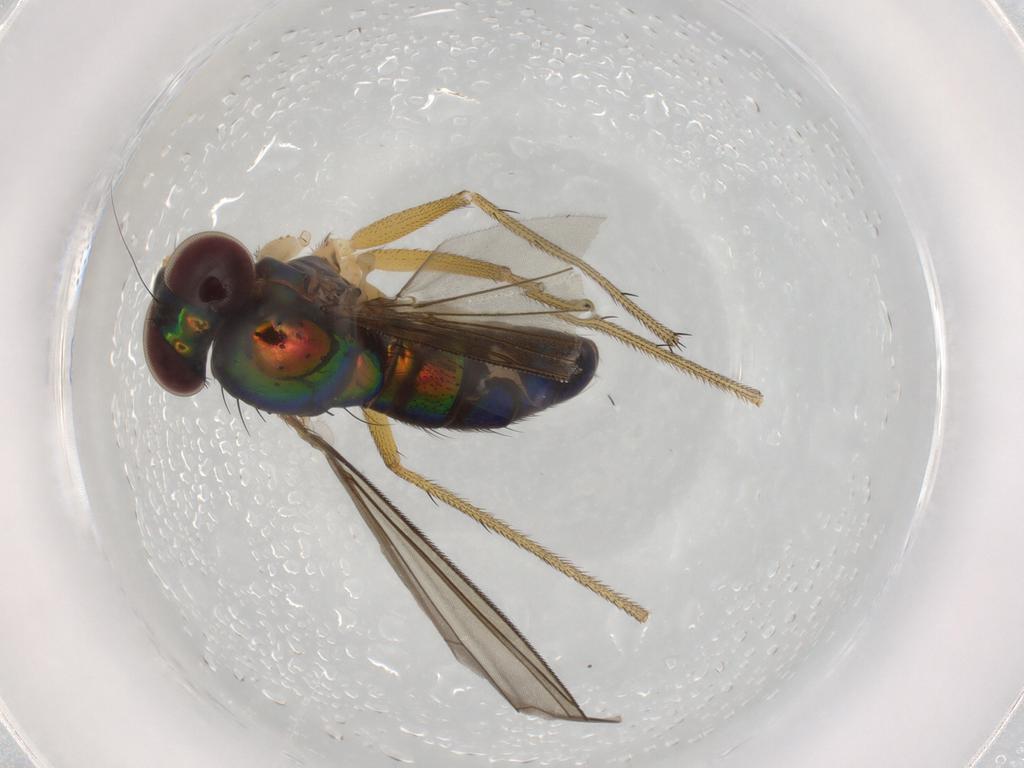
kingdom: Animalia
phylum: Arthropoda
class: Insecta
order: Diptera
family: Dolichopodidae
